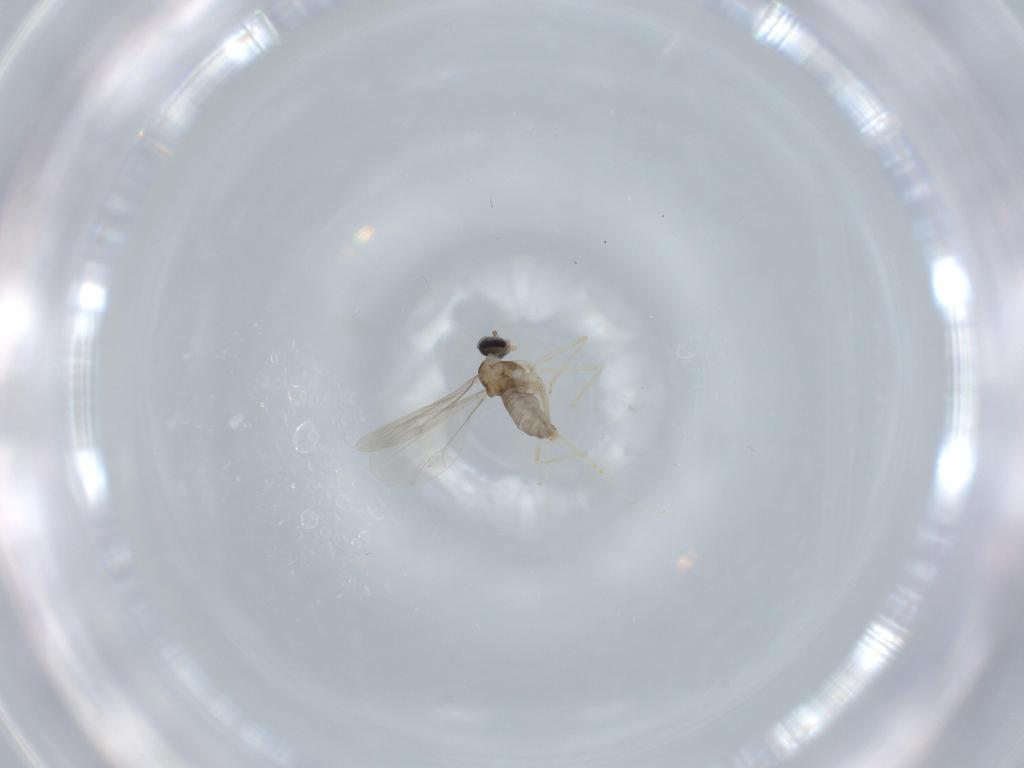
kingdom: Animalia
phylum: Arthropoda
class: Insecta
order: Diptera
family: Cecidomyiidae
